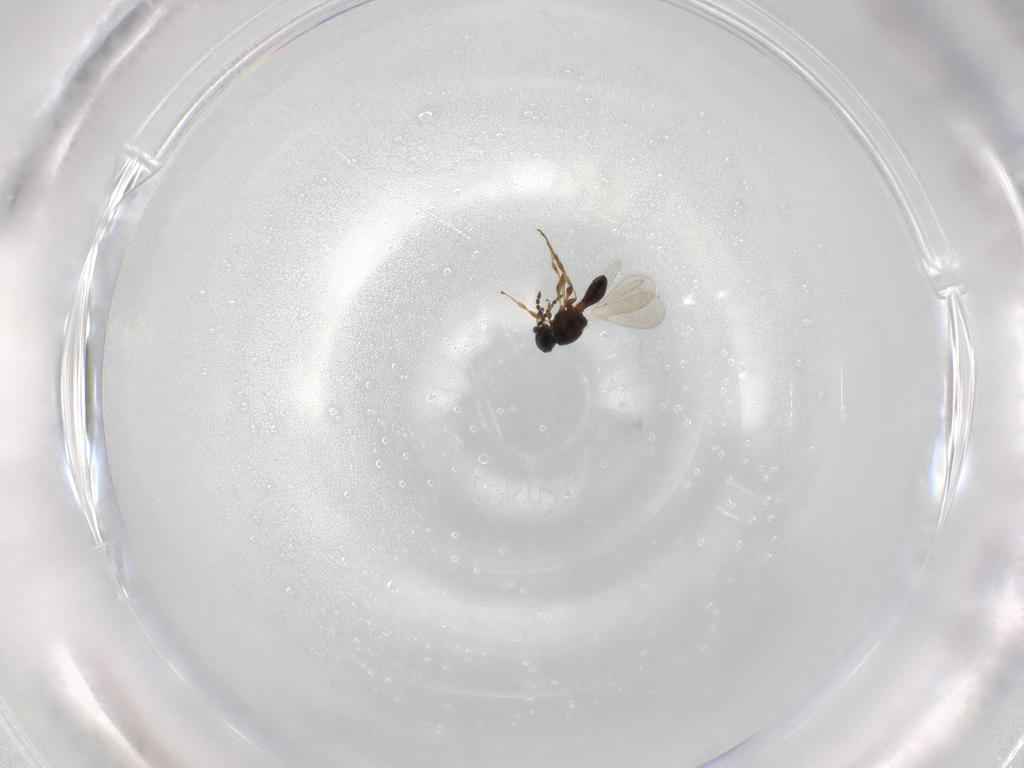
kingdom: Animalia
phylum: Arthropoda
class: Insecta
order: Hymenoptera
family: Platygastridae
